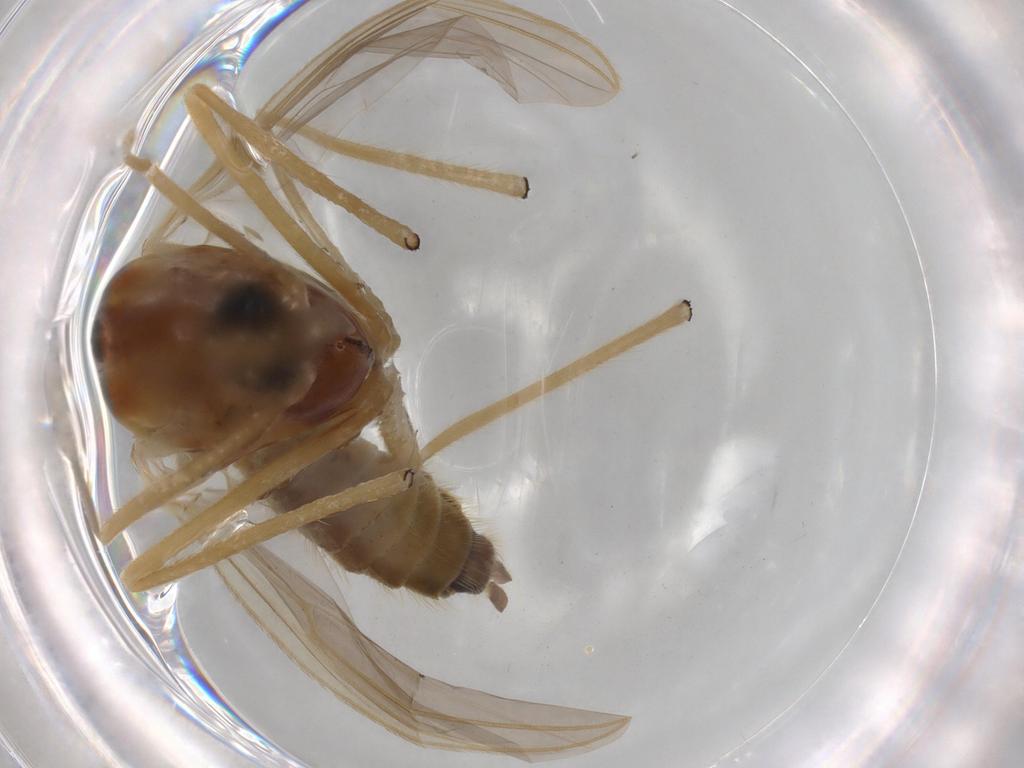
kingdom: Animalia
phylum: Arthropoda
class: Insecta
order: Diptera
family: Chironomidae
